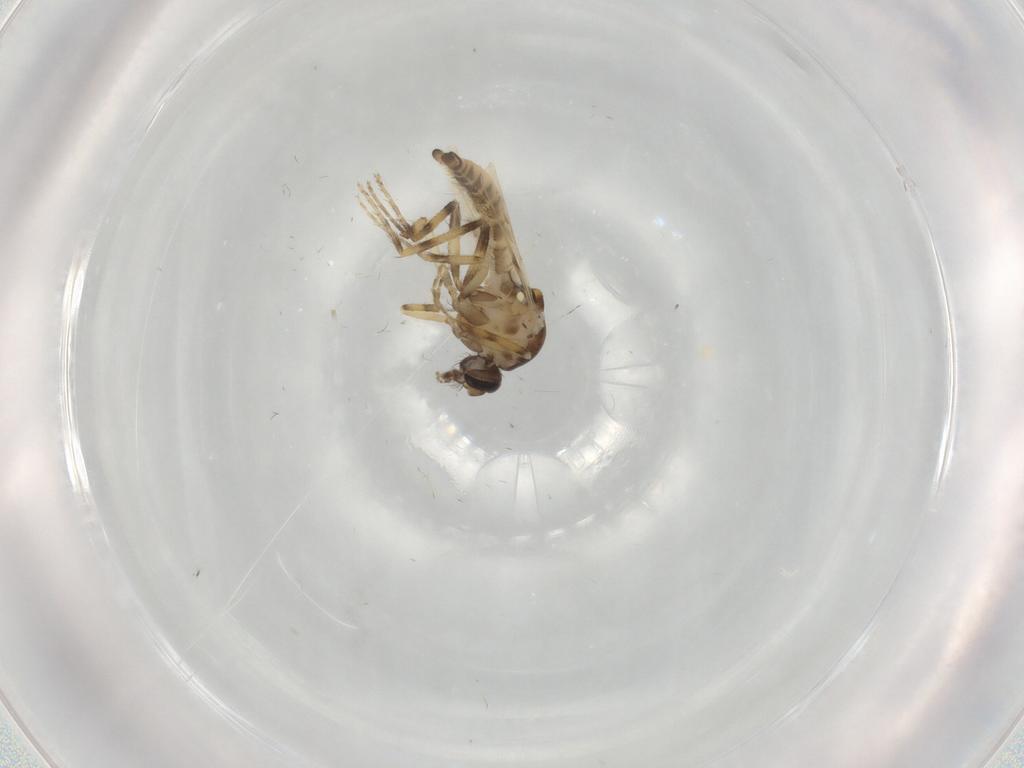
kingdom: Animalia
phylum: Arthropoda
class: Insecta
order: Diptera
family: Ceratopogonidae
